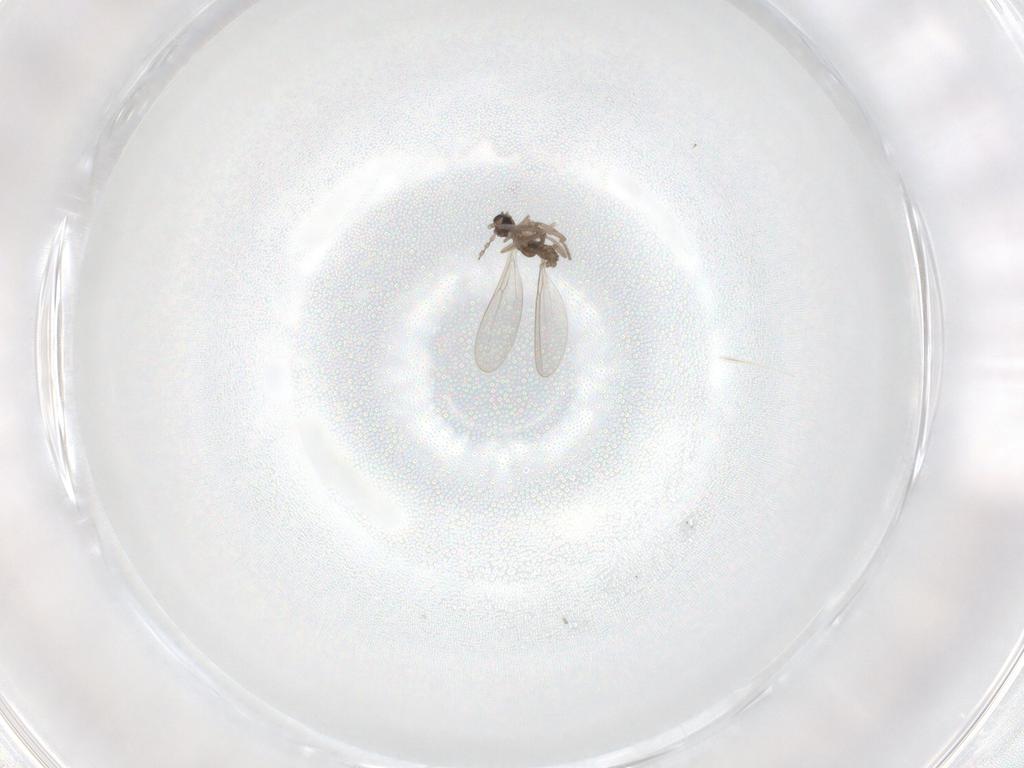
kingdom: Animalia
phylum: Arthropoda
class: Insecta
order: Diptera
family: Cecidomyiidae
